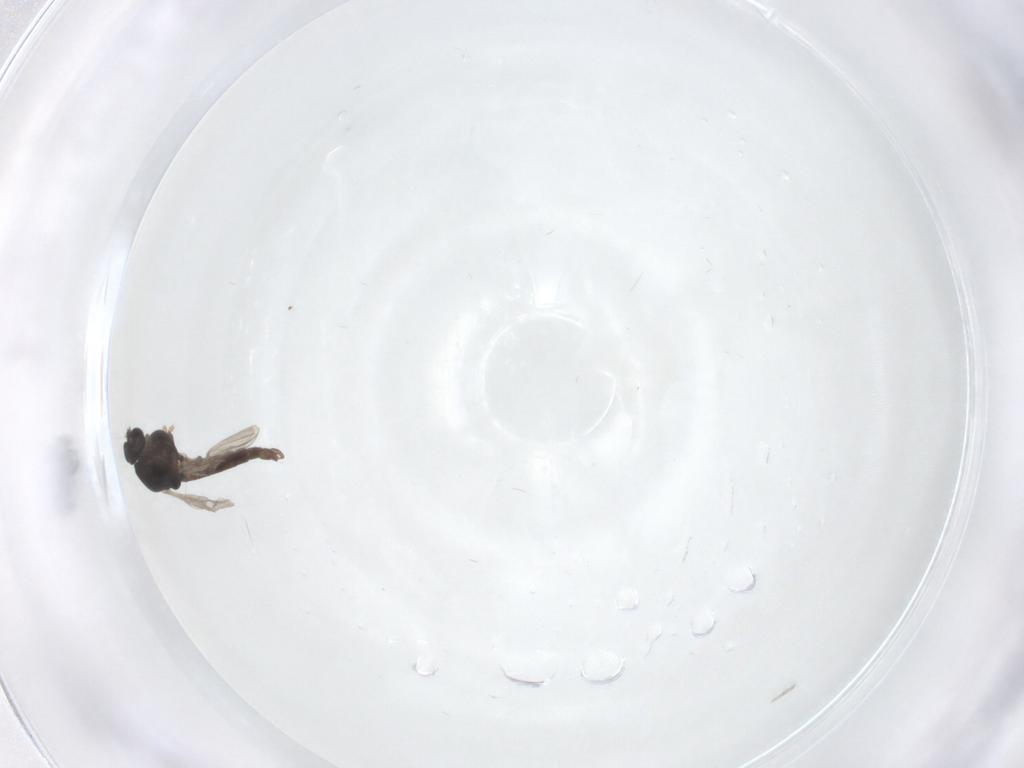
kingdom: Animalia
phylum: Arthropoda
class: Insecta
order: Diptera
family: Chironomidae
